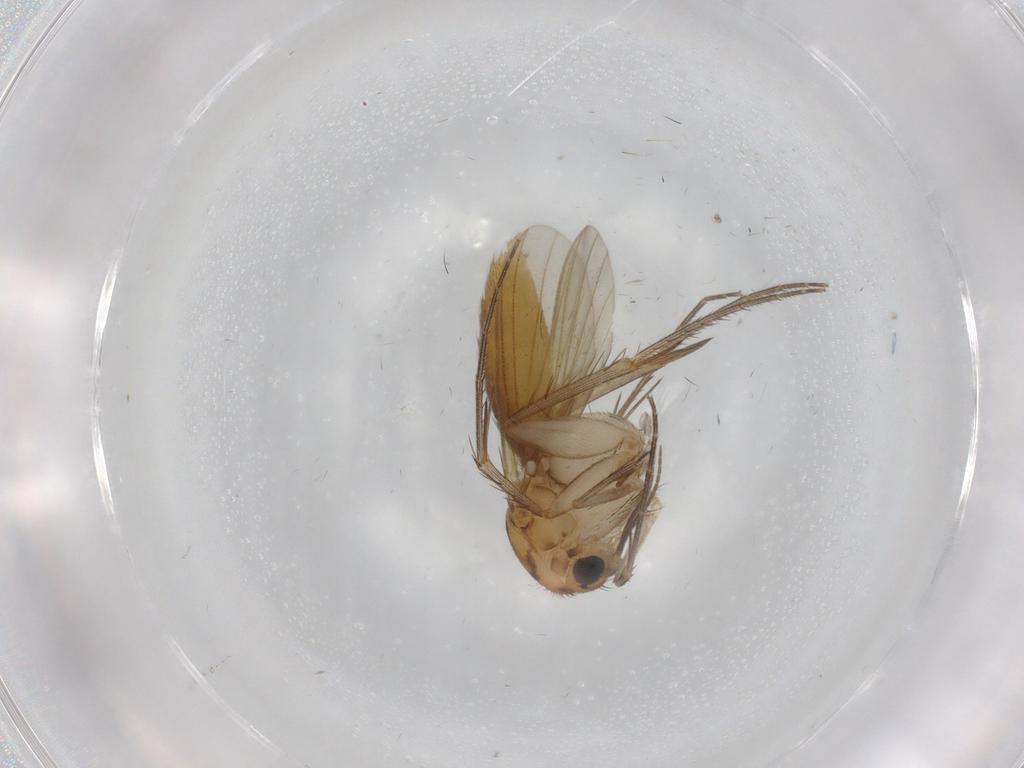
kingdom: Animalia
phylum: Arthropoda
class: Insecta
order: Diptera
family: Mycetophilidae
